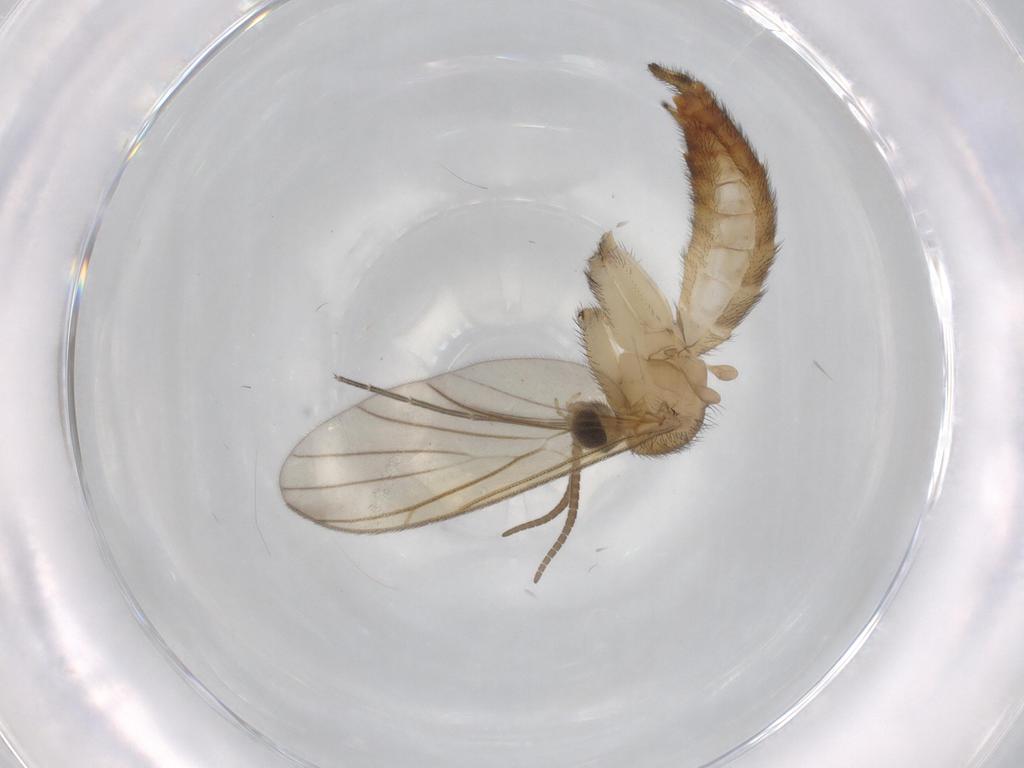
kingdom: Animalia
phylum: Arthropoda
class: Insecta
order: Diptera
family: Keroplatidae
